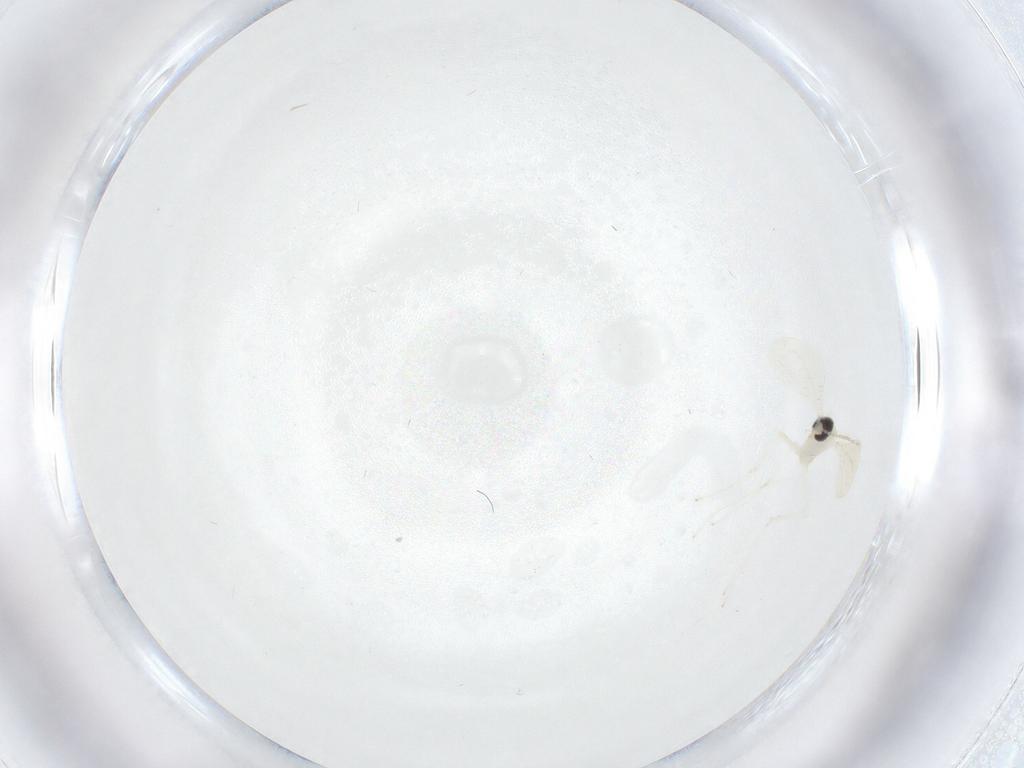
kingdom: Animalia
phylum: Arthropoda
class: Insecta
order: Diptera
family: Cecidomyiidae
